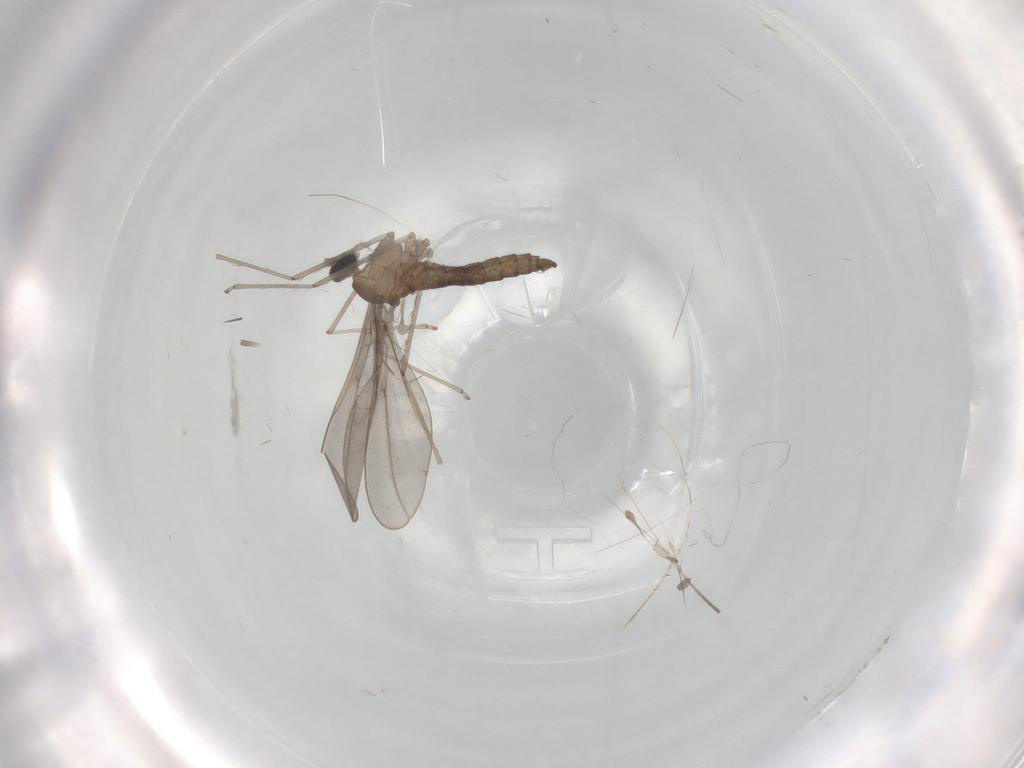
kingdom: Animalia
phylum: Arthropoda
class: Insecta
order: Diptera
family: Cecidomyiidae
